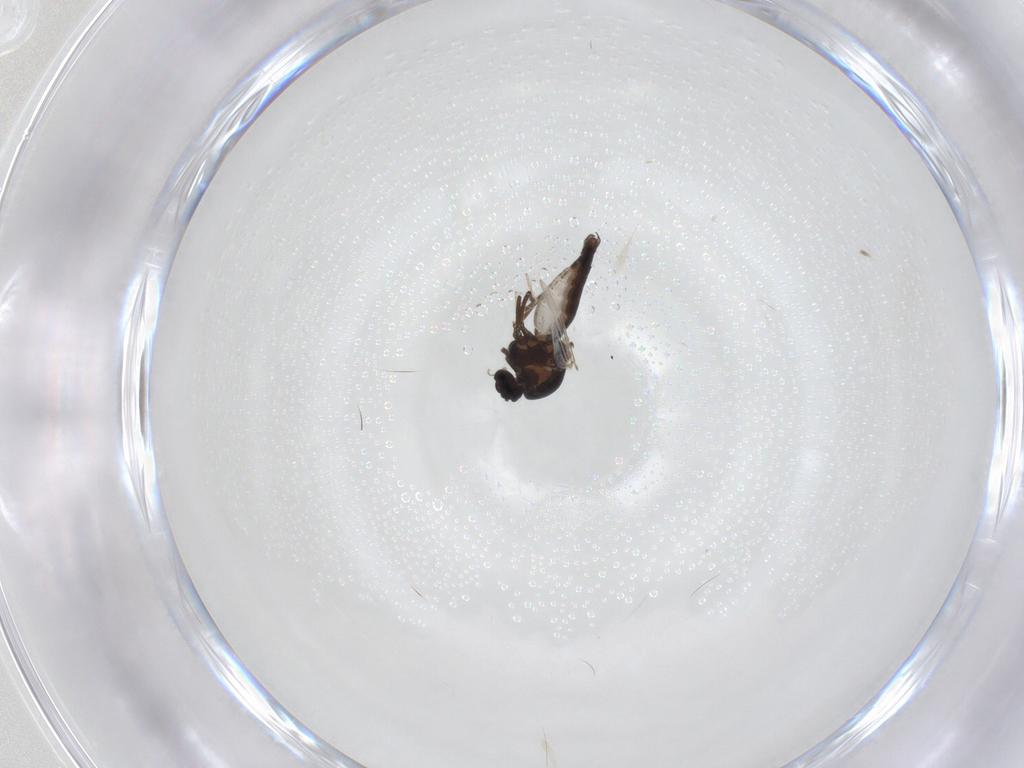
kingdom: Animalia
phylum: Arthropoda
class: Insecta
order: Diptera
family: Ceratopogonidae
